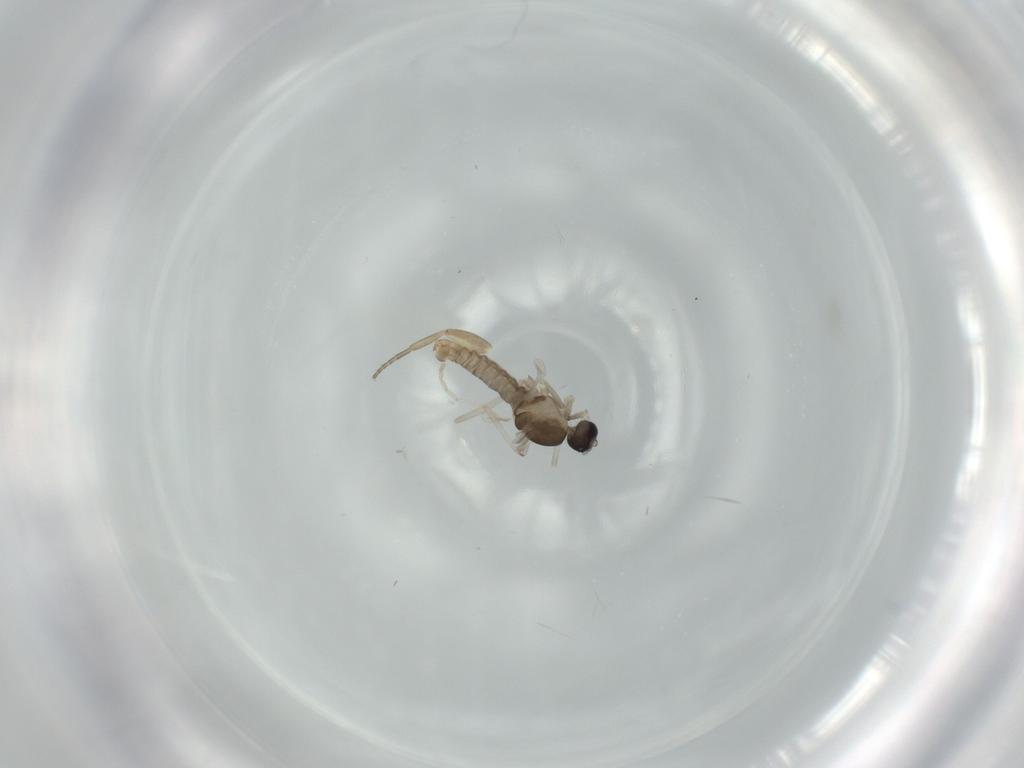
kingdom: Animalia
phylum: Arthropoda
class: Insecta
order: Diptera
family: Phoridae
